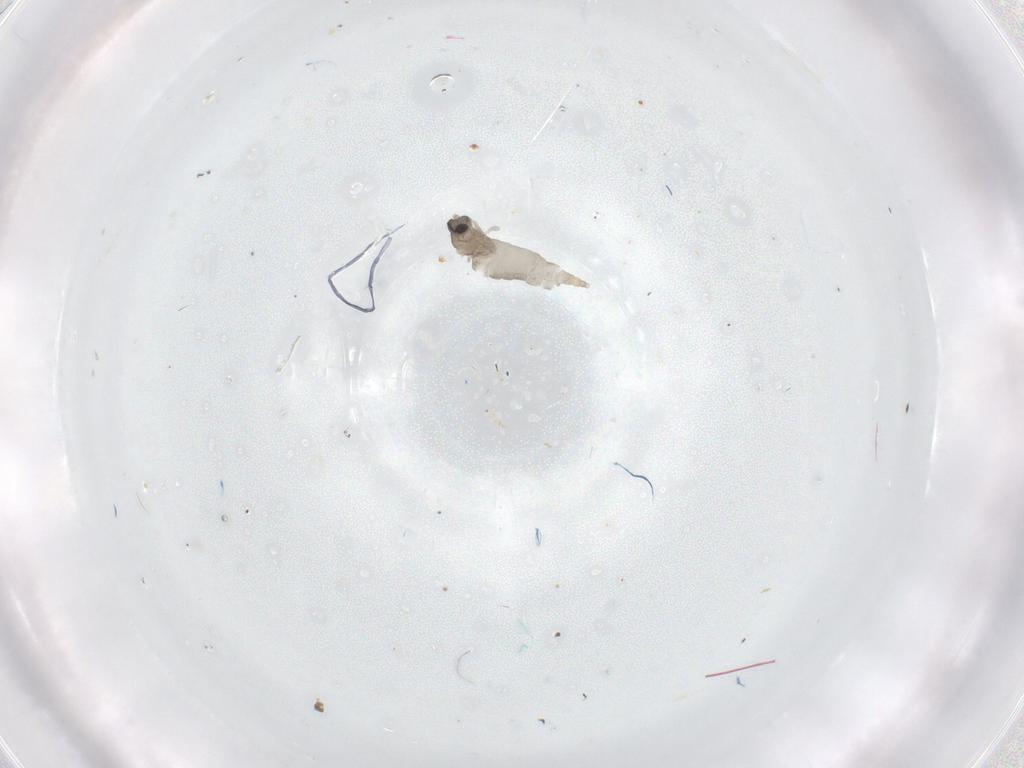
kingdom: Animalia
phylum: Arthropoda
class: Insecta
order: Diptera
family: Cecidomyiidae
